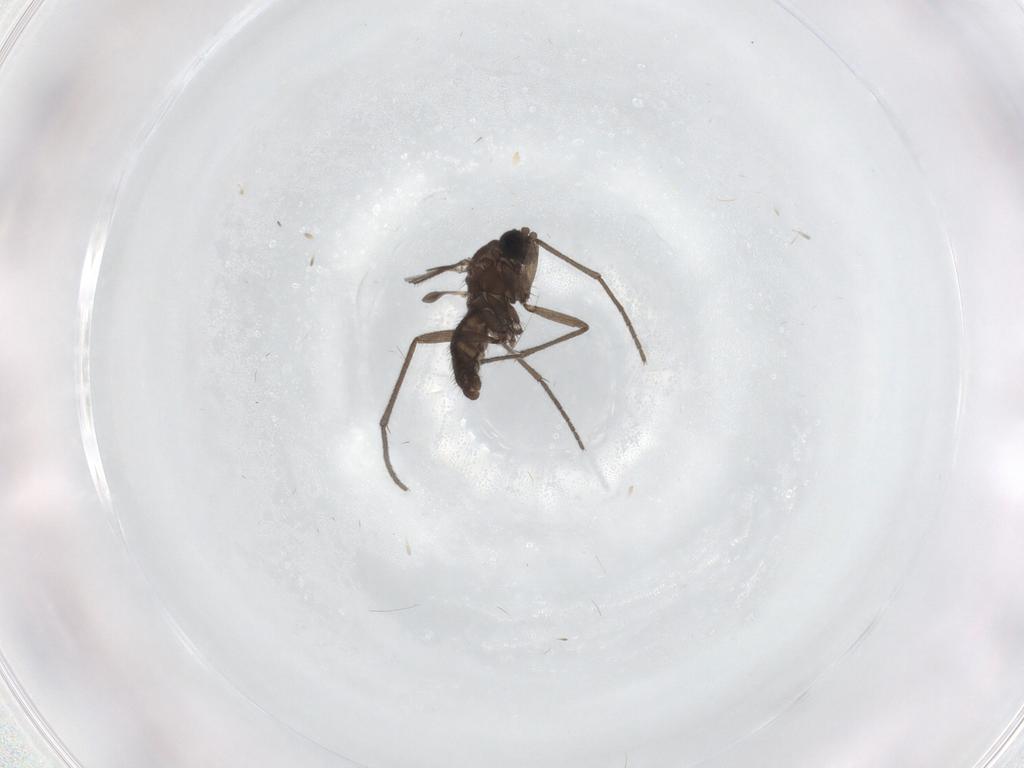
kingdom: Animalia
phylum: Arthropoda
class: Insecta
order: Diptera
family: Sciaridae
